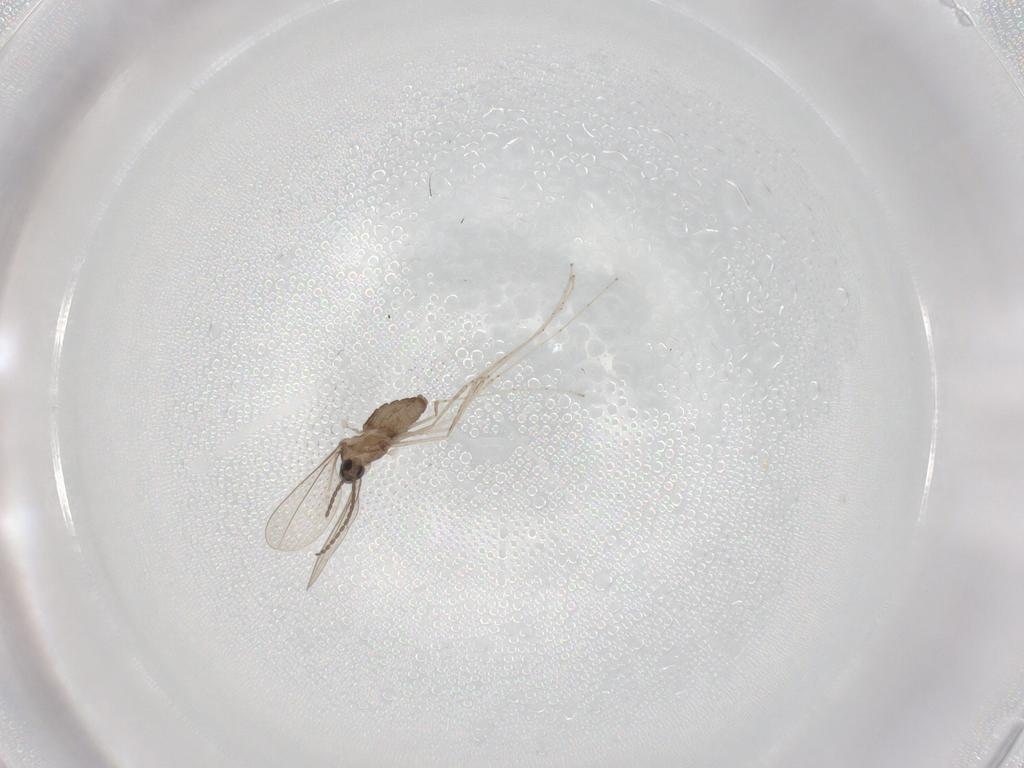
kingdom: Animalia
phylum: Arthropoda
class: Insecta
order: Diptera
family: Cecidomyiidae
